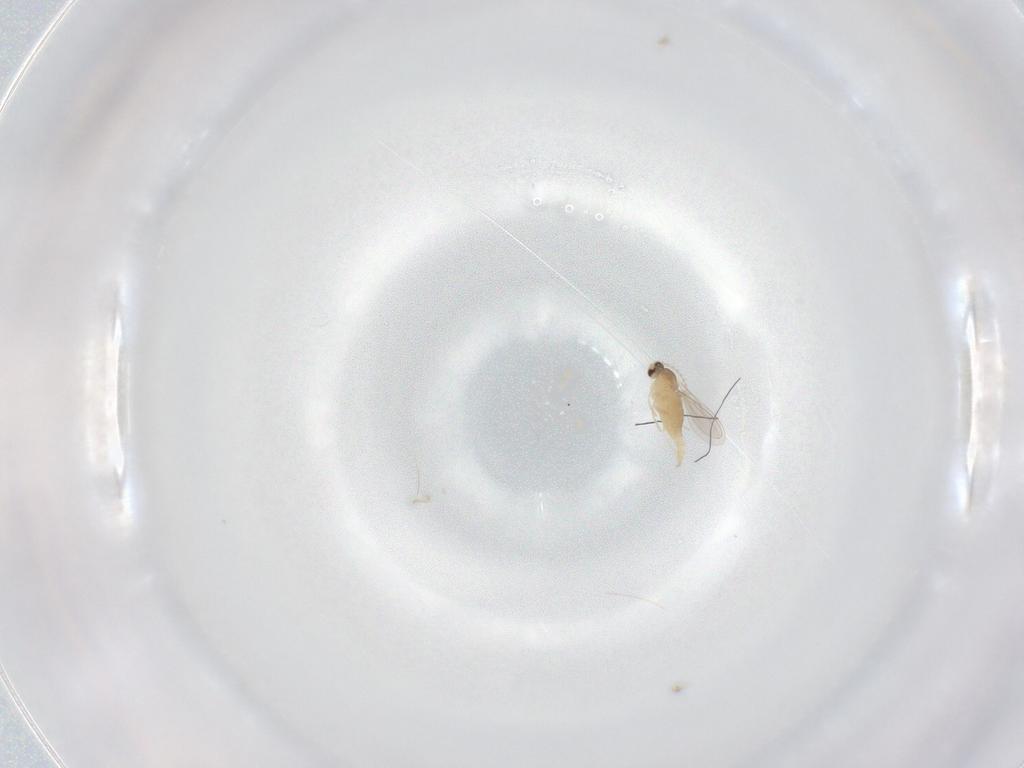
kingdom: Animalia
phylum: Arthropoda
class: Insecta
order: Diptera
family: Cecidomyiidae
